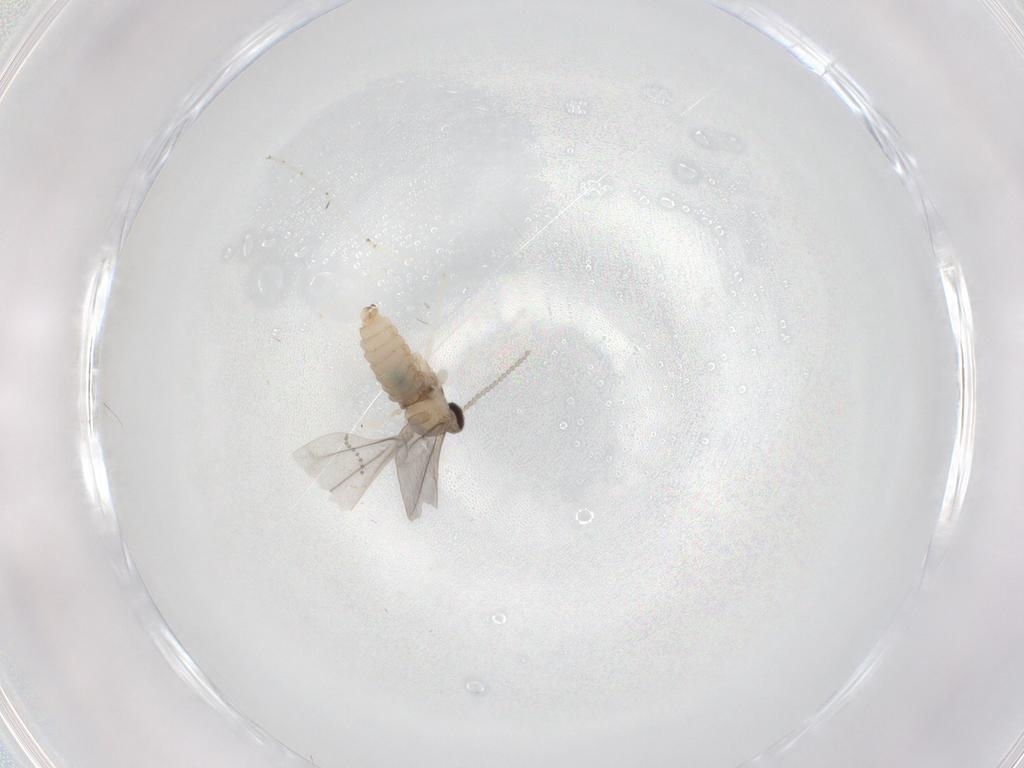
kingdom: Animalia
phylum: Arthropoda
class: Insecta
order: Diptera
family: Cecidomyiidae
